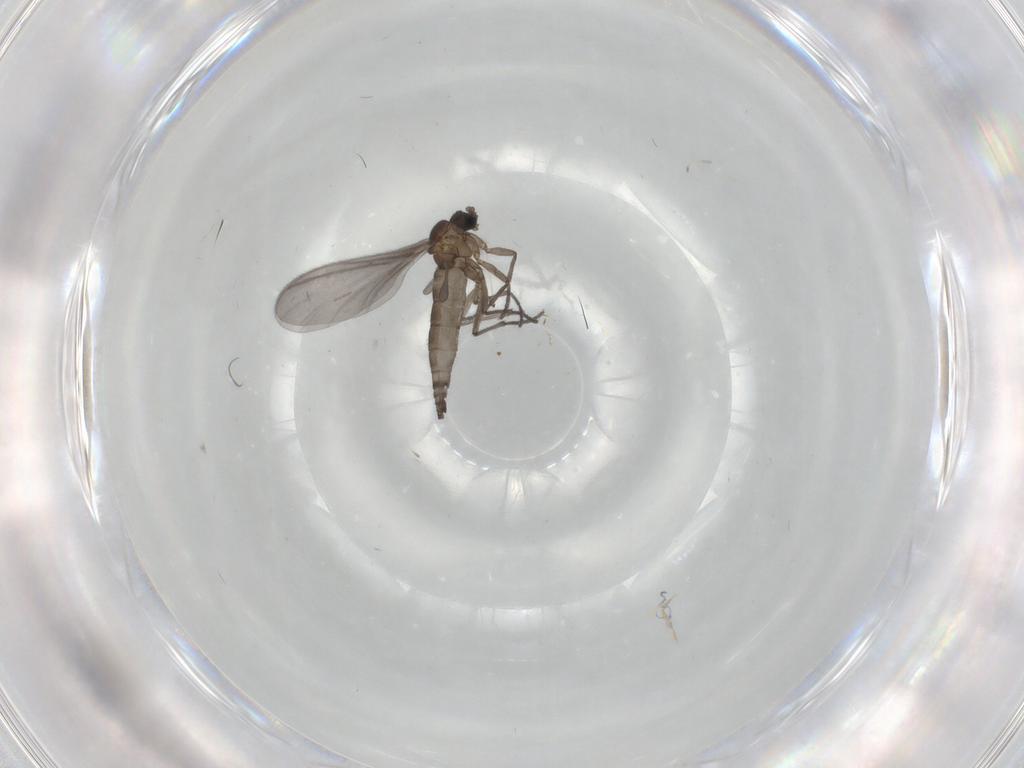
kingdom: Animalia
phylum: Arthropoda
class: Insecta
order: Diptera
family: Sciaridae
